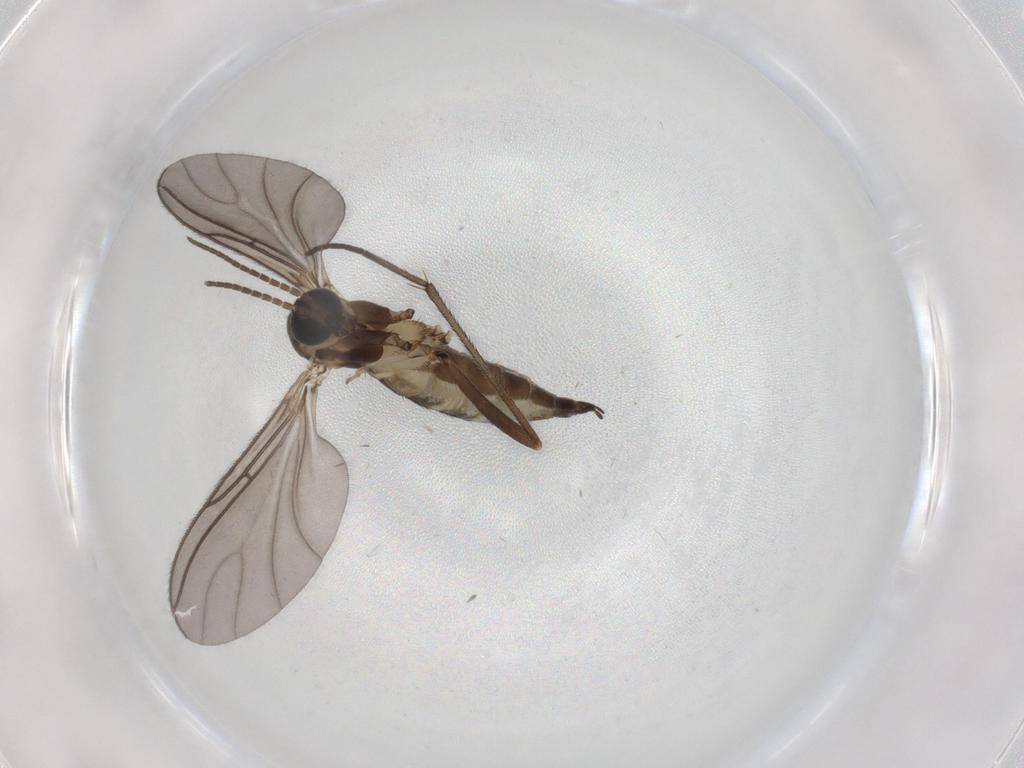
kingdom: Animalia
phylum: Arthropoda
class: Insecta
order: Diptera
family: Sciaridae
